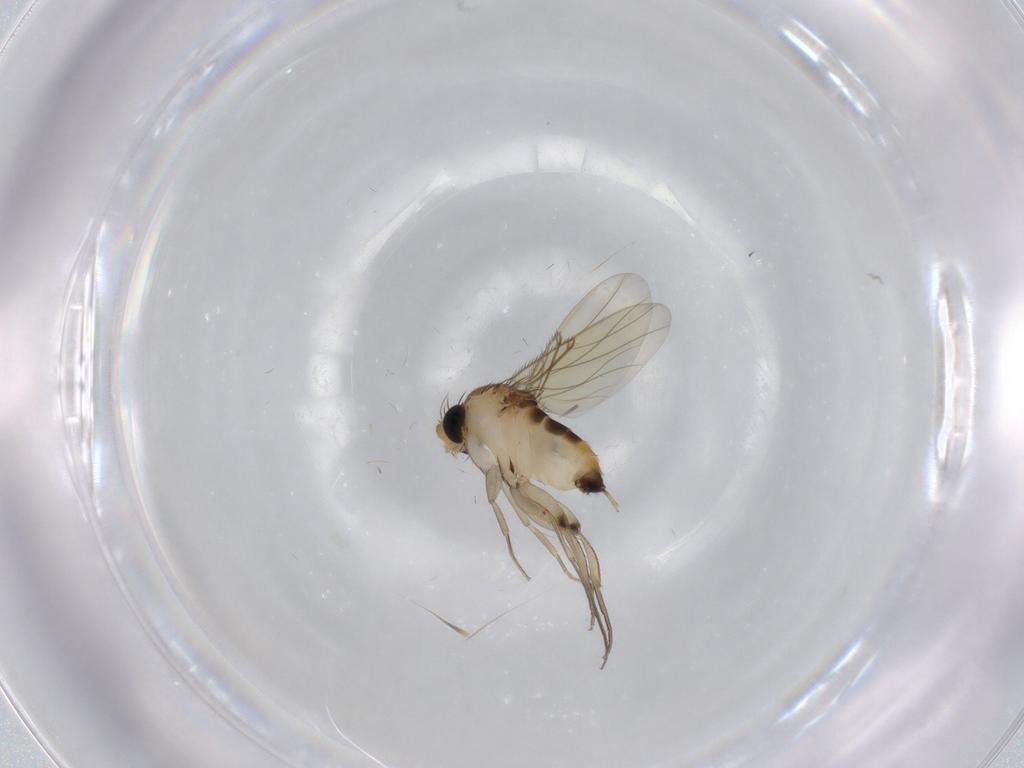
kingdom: Animalia
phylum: Arthropoda
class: Insecta
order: Diptera
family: Phoridae
